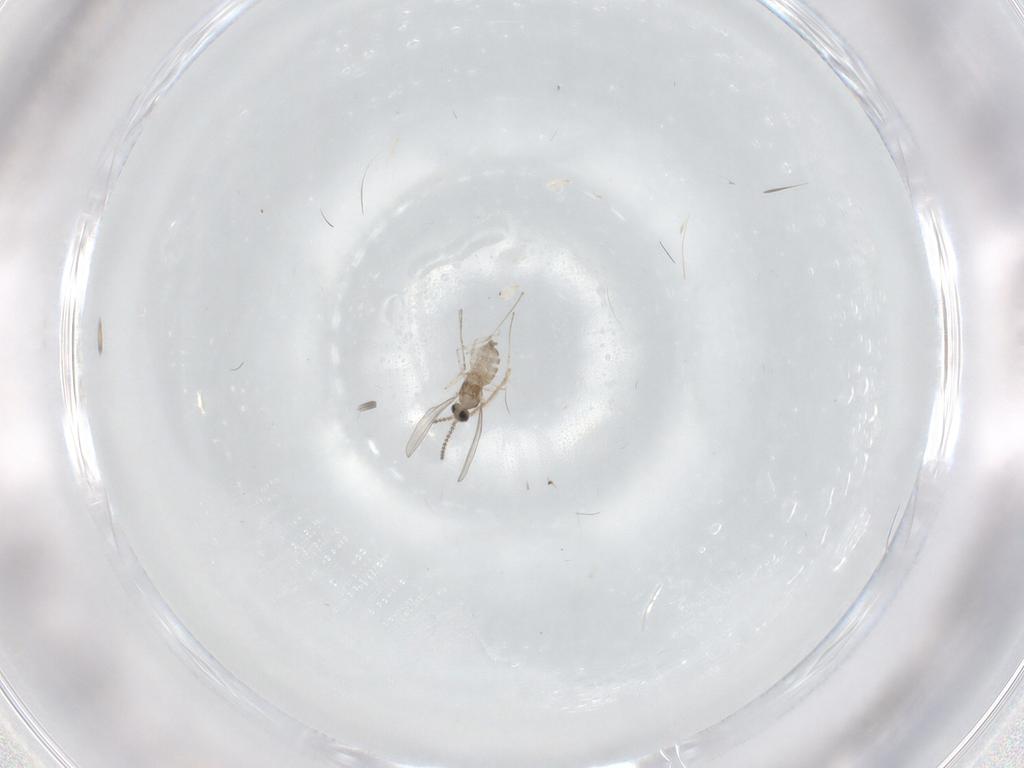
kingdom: Animalia
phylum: Arthropoda
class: Insecta
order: Diptera
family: Chironomidae
